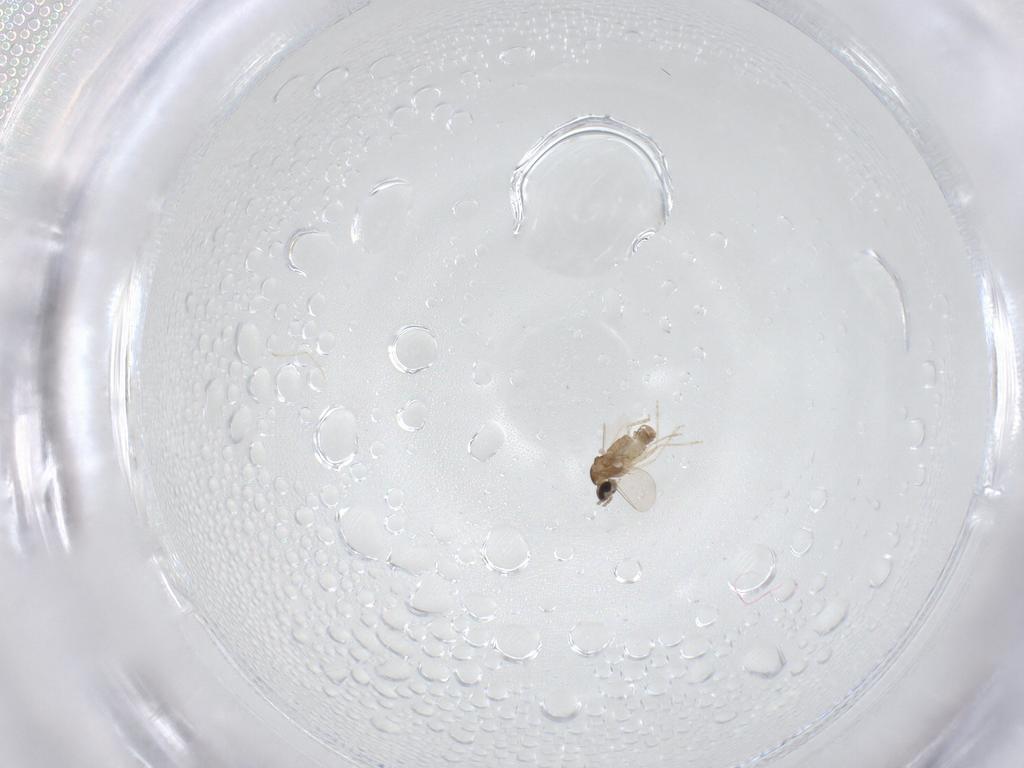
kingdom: Animalia
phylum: Arthropoda
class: Insecta
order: Diptera
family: Cecidomyiidae
